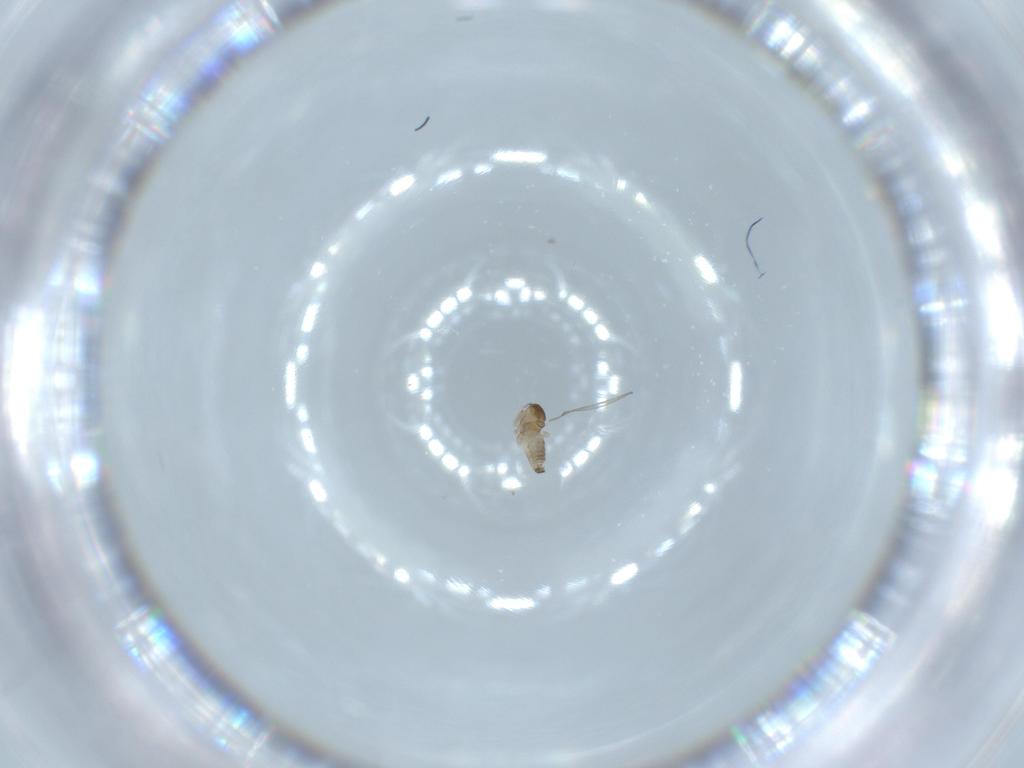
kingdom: Animalia
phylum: Arthropoda
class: Insecta
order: Diptera
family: Cecidomyiidae
